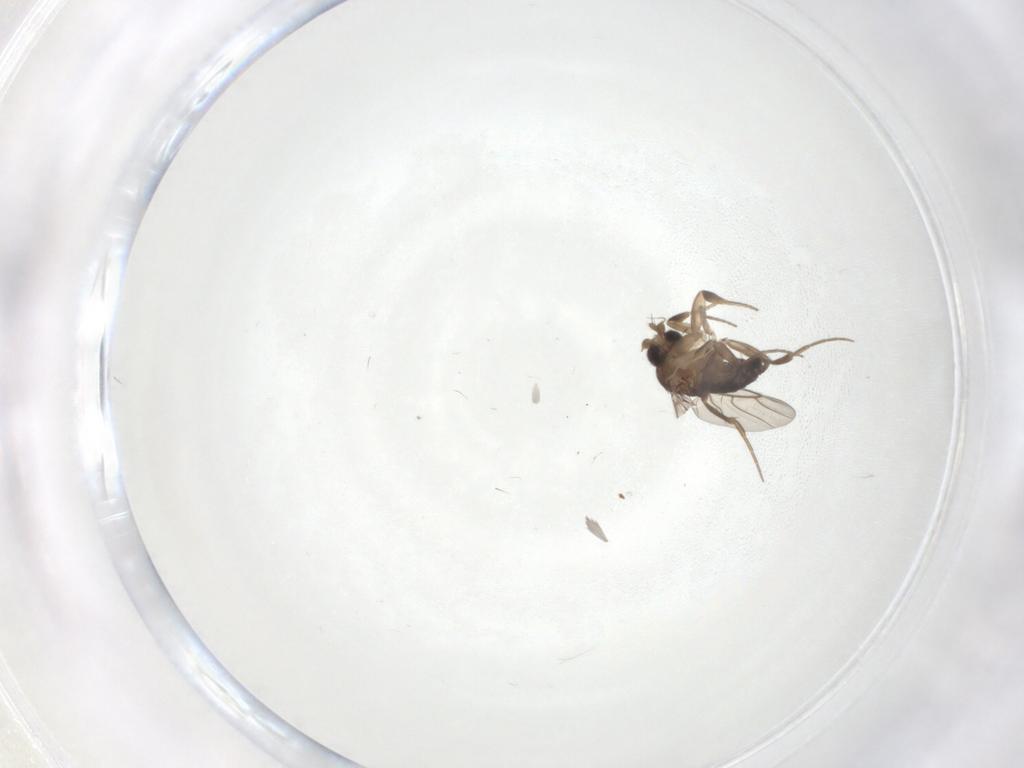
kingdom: Animalia
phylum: Arthropoda
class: Insecta
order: Diptera
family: Phoridae
